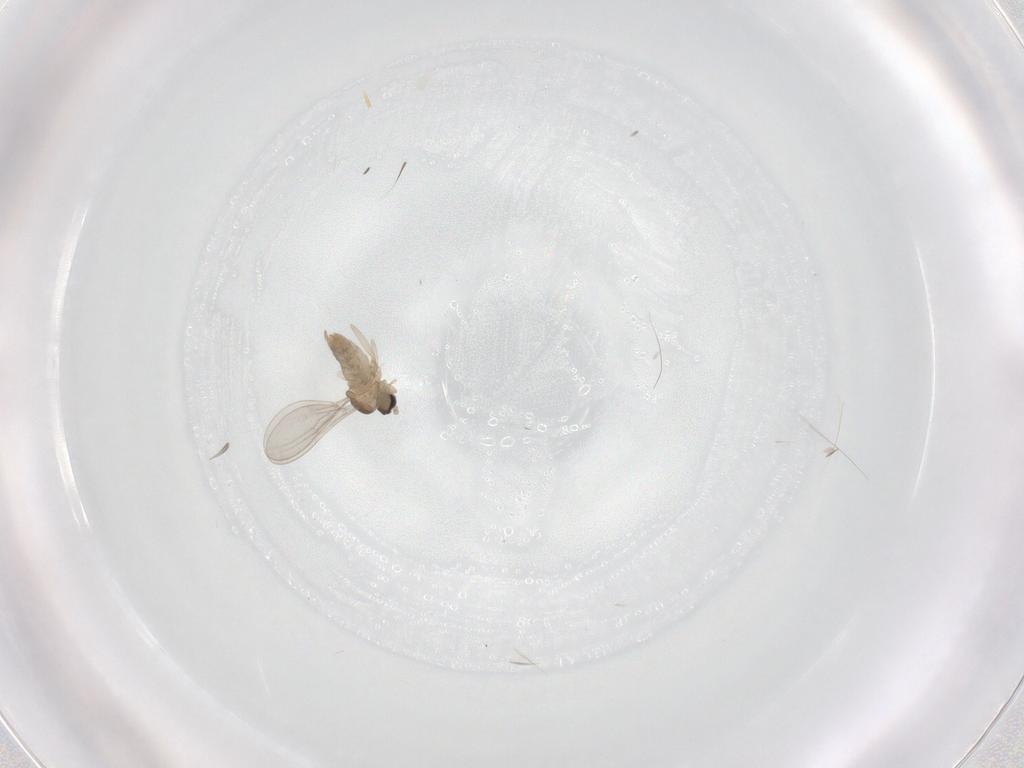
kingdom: Animalia
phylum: Arthropoda
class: Insecta
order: Diptera
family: Cecidomyiidae
